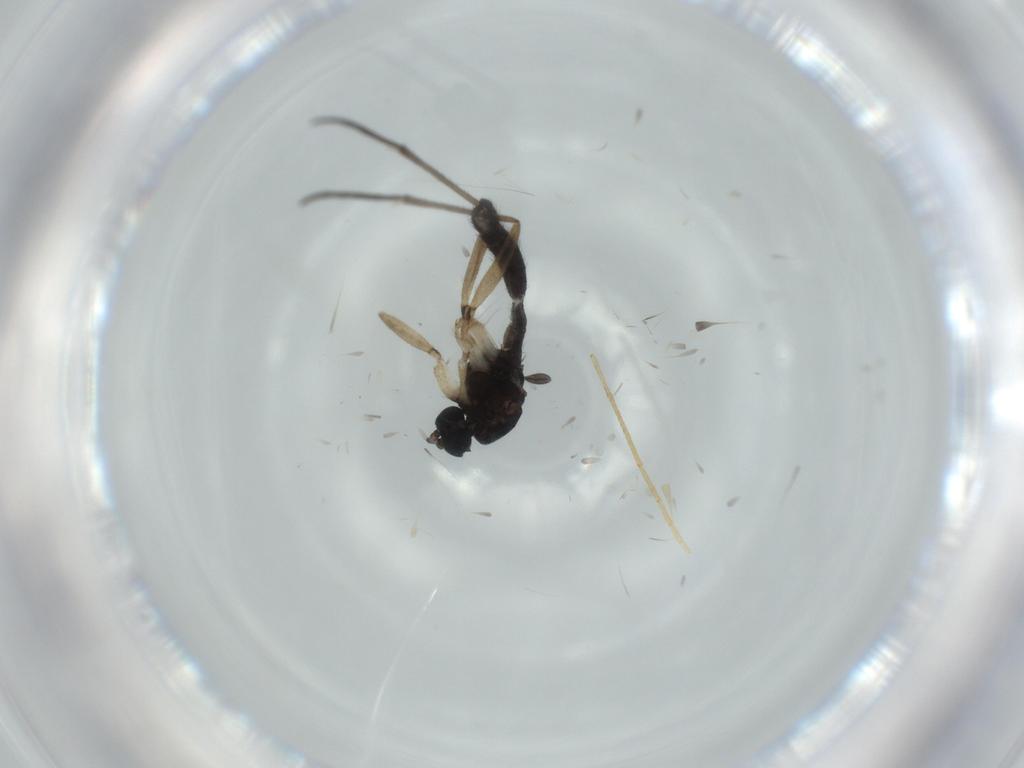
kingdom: Animalia
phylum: Arthropoda
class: Insecta
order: Diptera
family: Sciaridae
